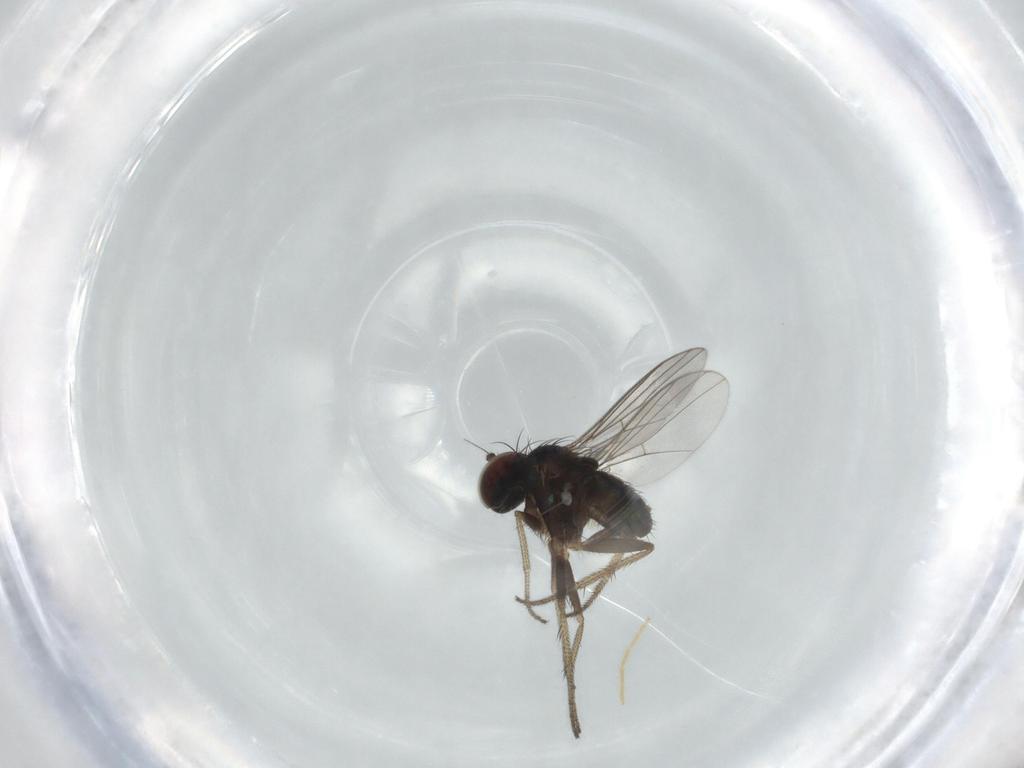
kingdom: Animalia
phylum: Arthropoda
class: Insecta
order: Diptera
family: Chironomidae
